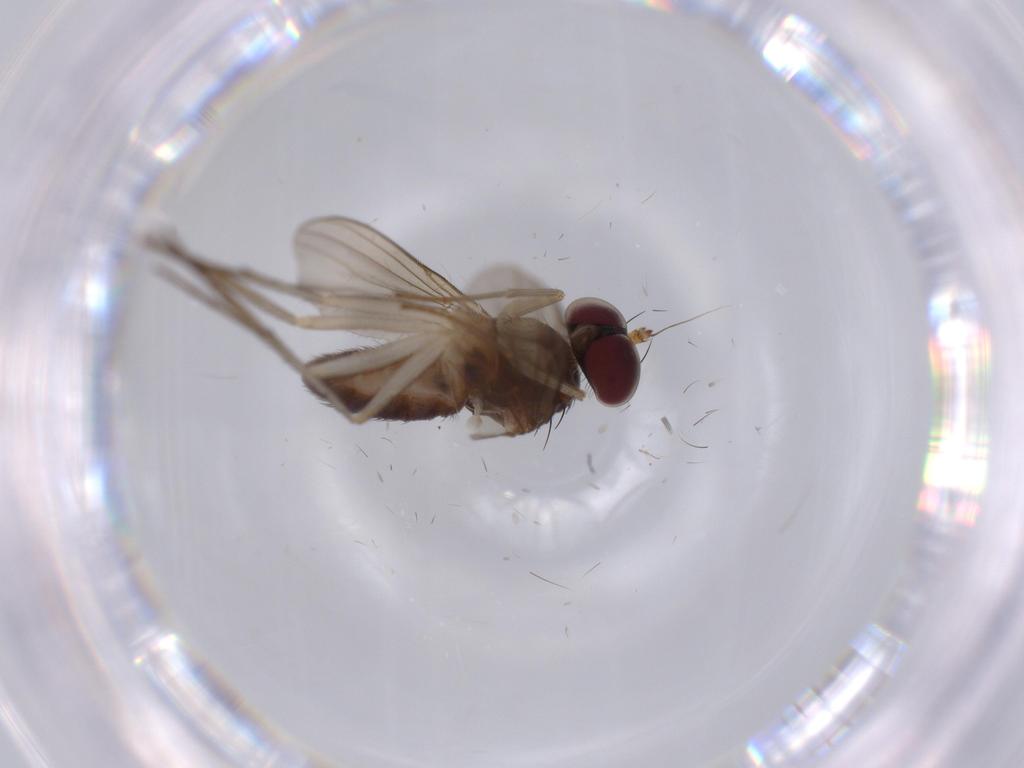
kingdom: Animalia
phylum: Arthropoda
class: Insecta
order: Diptera
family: Dolichopodidae
